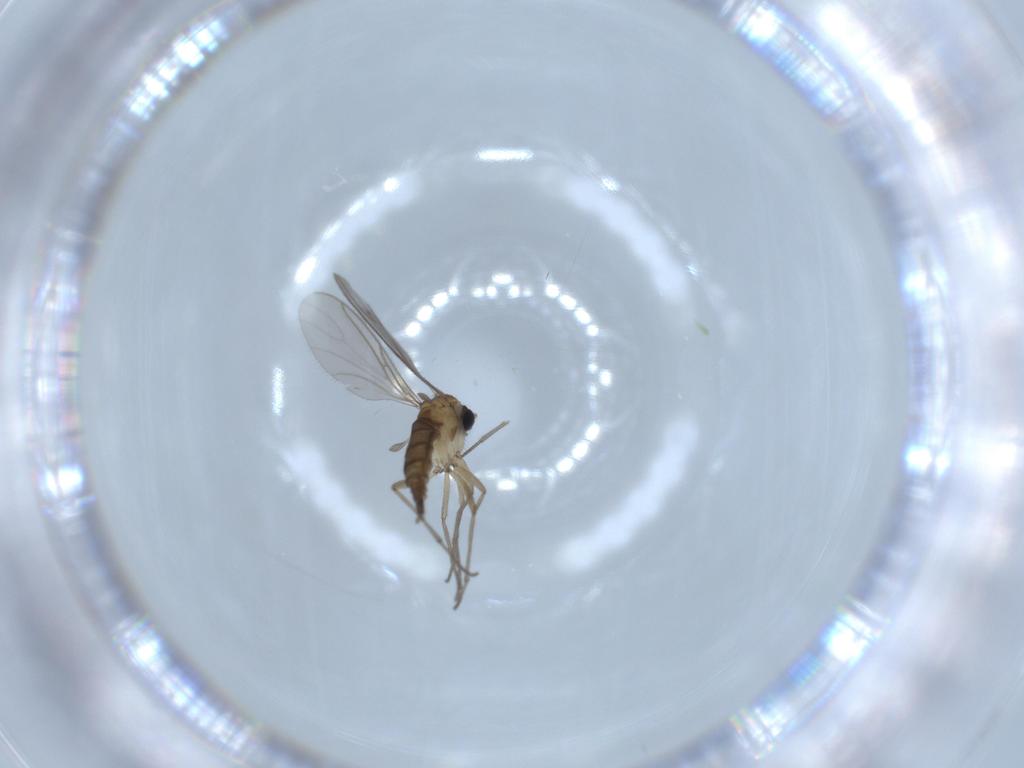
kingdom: Animalia
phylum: Arthropoda
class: Insecta
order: Diptera
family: Sciaridae
